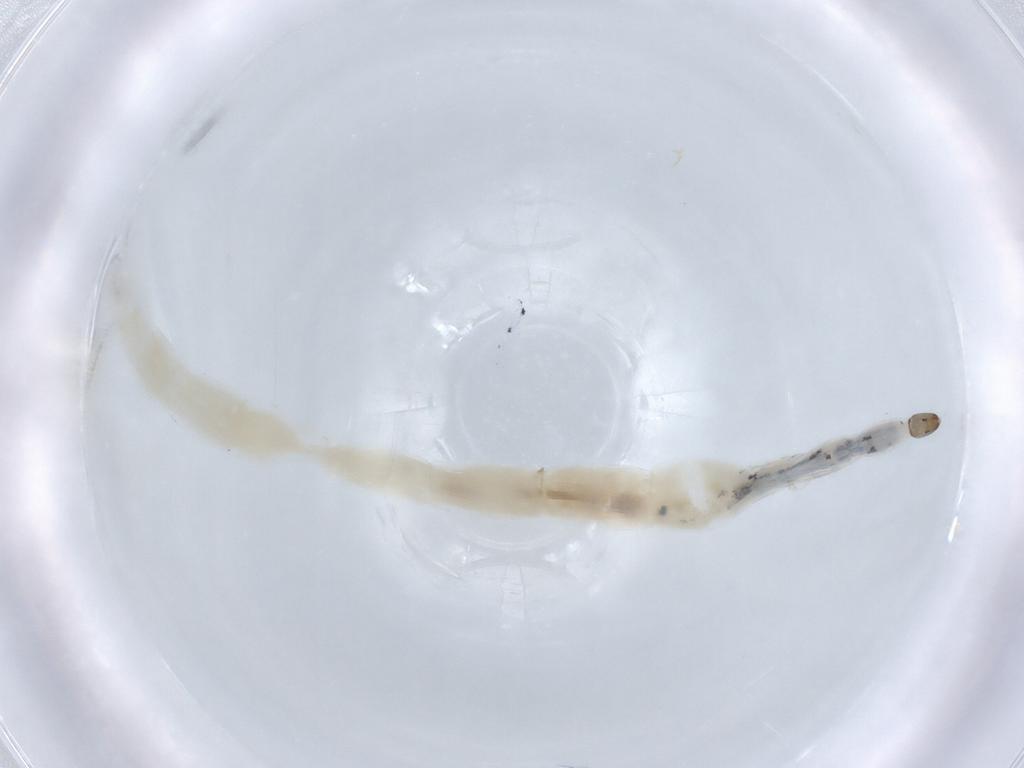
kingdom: Animalia
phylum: Arthropoda
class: Insecta
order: Diptera
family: Ceratopogonidae
